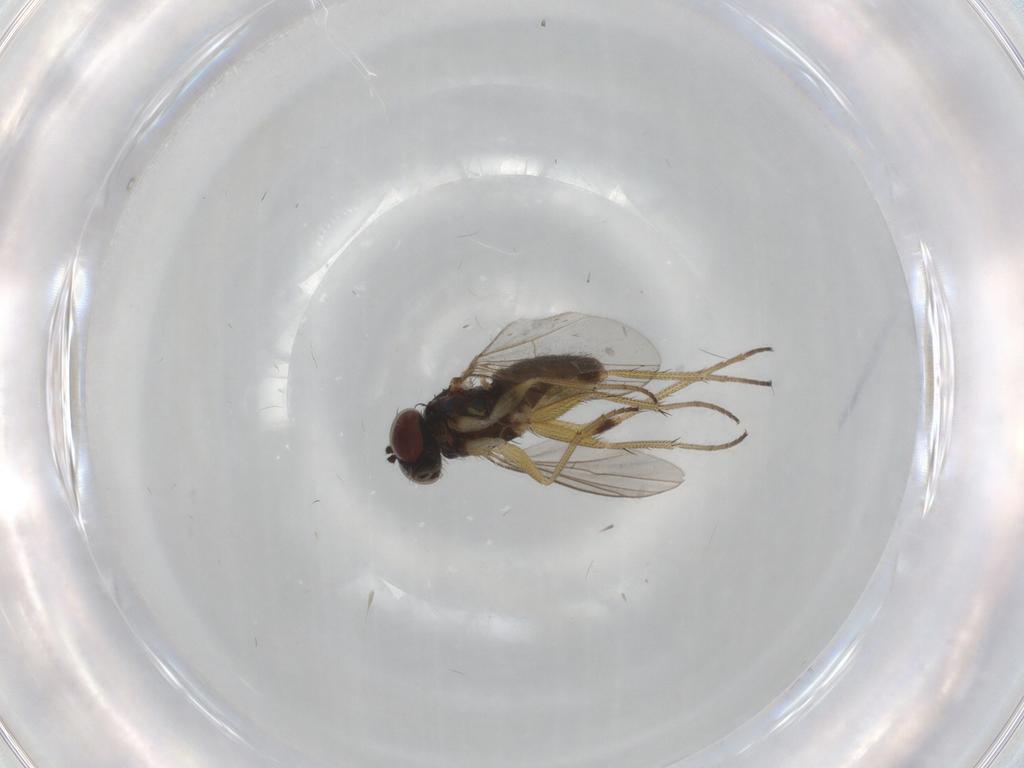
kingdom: Animalia
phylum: Arthropoda
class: Insecta
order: Diptera
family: Dolichopodidae
